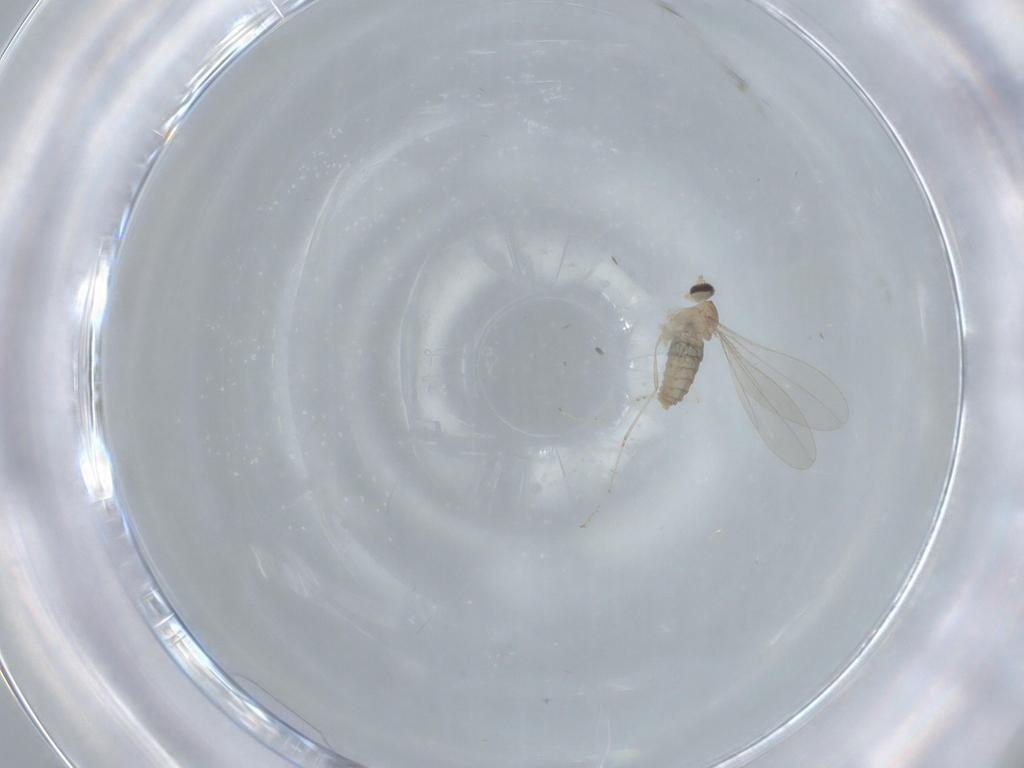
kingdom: Animalia
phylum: Arthropoda
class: Insecta
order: Diptera
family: Cecidomyiidae
